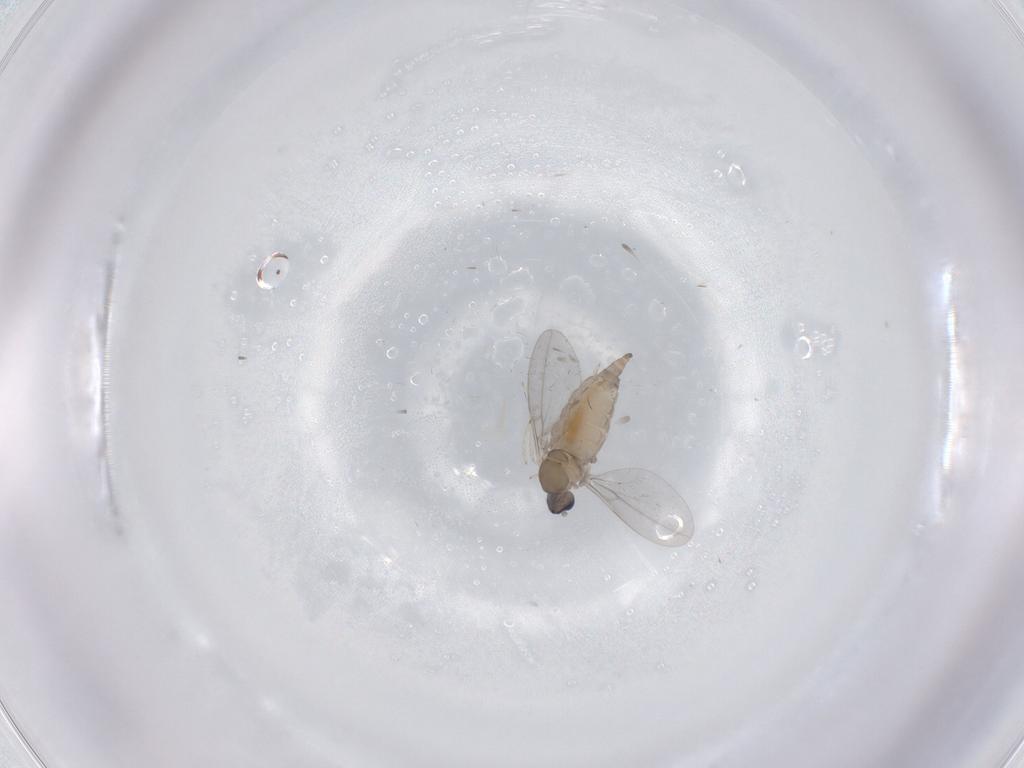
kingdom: Animalia
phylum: Arthropoda
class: Insecta
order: Diptera
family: Cecidomyiidae
